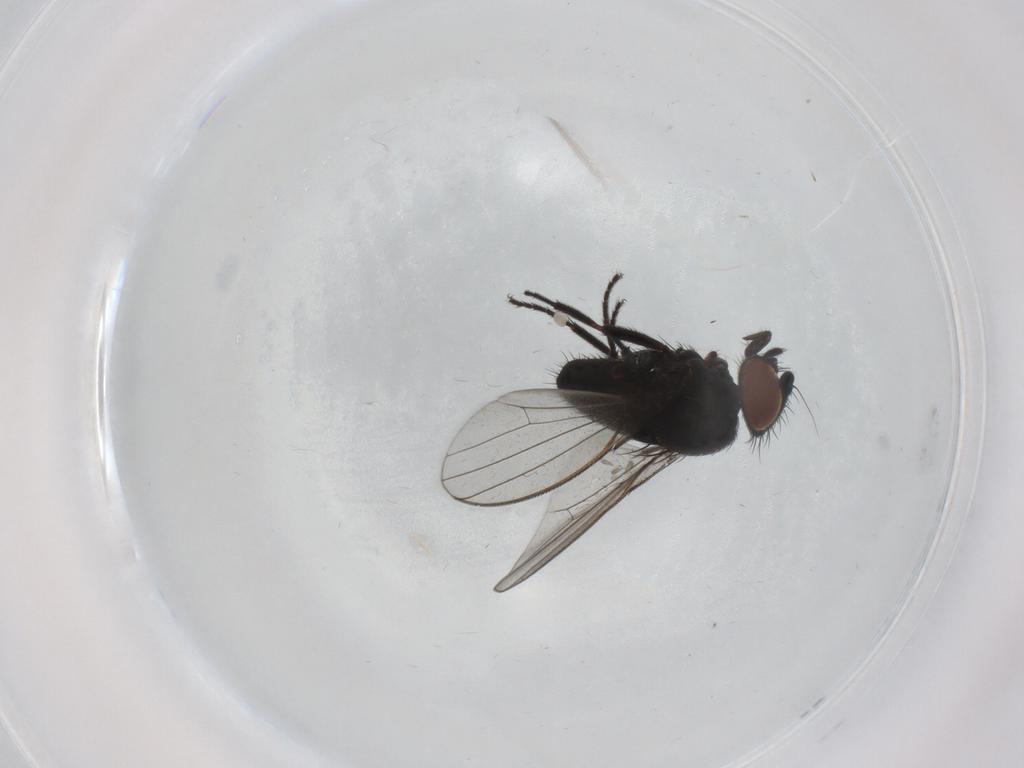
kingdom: Animalia
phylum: Arthropoda
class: Insecta
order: Diptera
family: Milichiidae
